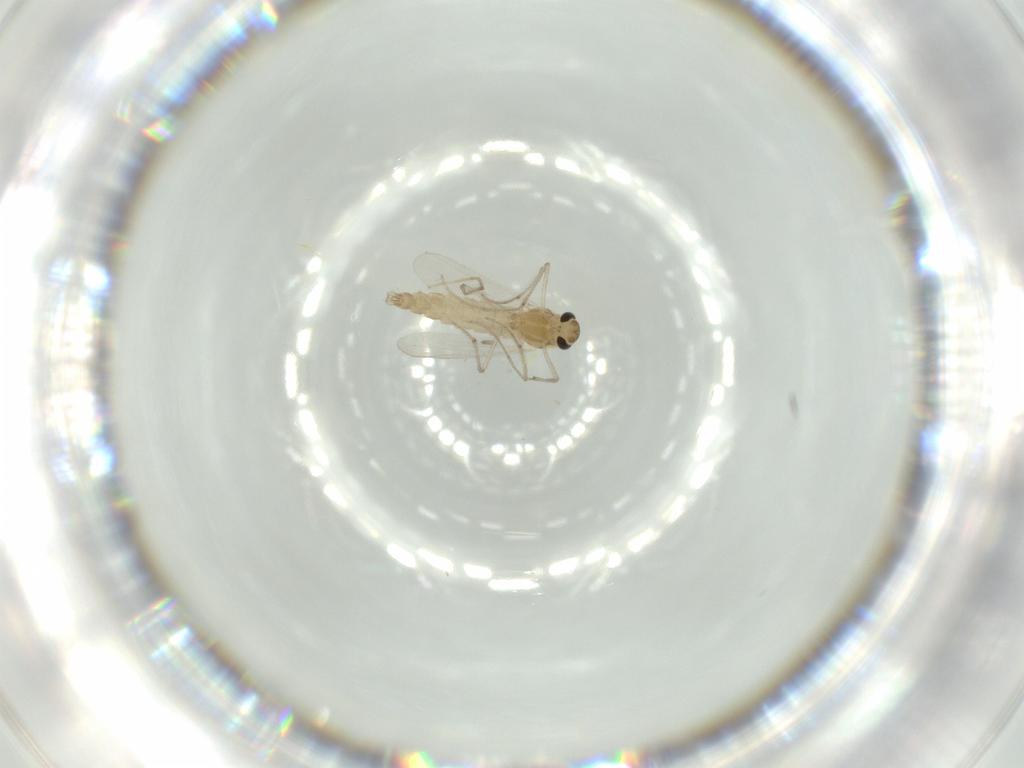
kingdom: Animalia
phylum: Arthropoda
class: Insecta
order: Diptera
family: Chironomidae
